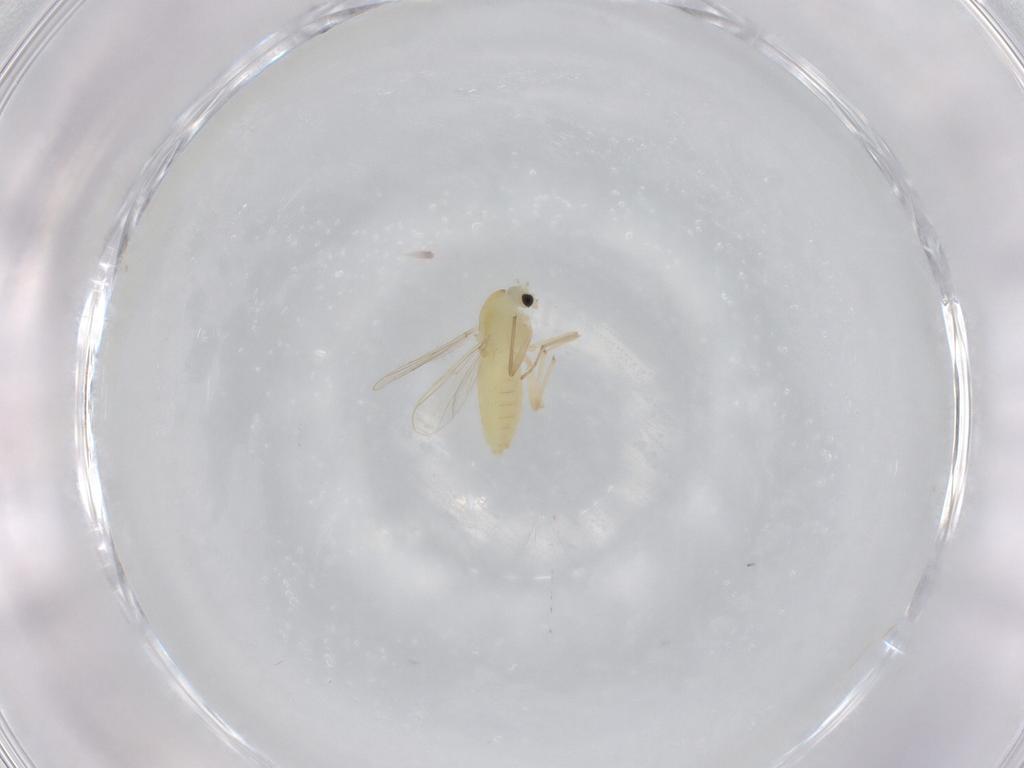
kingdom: Animalia
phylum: Arthropoda
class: Insecta
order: Diptera
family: Chironomidae
